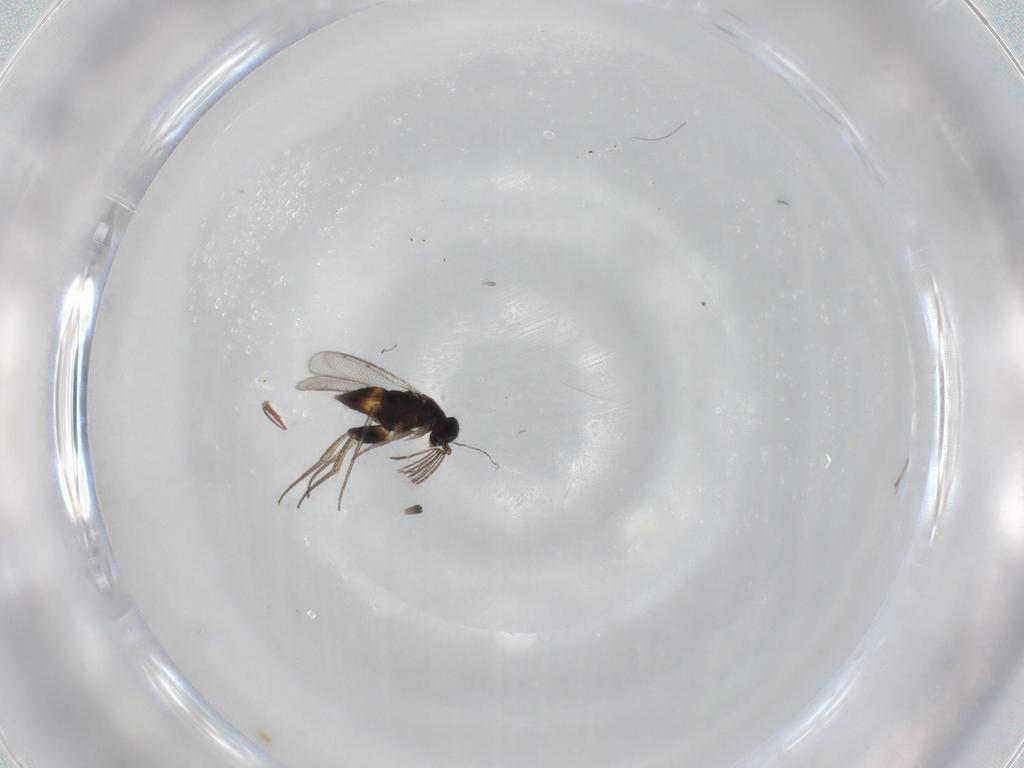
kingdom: Animalia
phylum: Arthropoda
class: Insecta
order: Hymenoptera
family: Eulophidae
